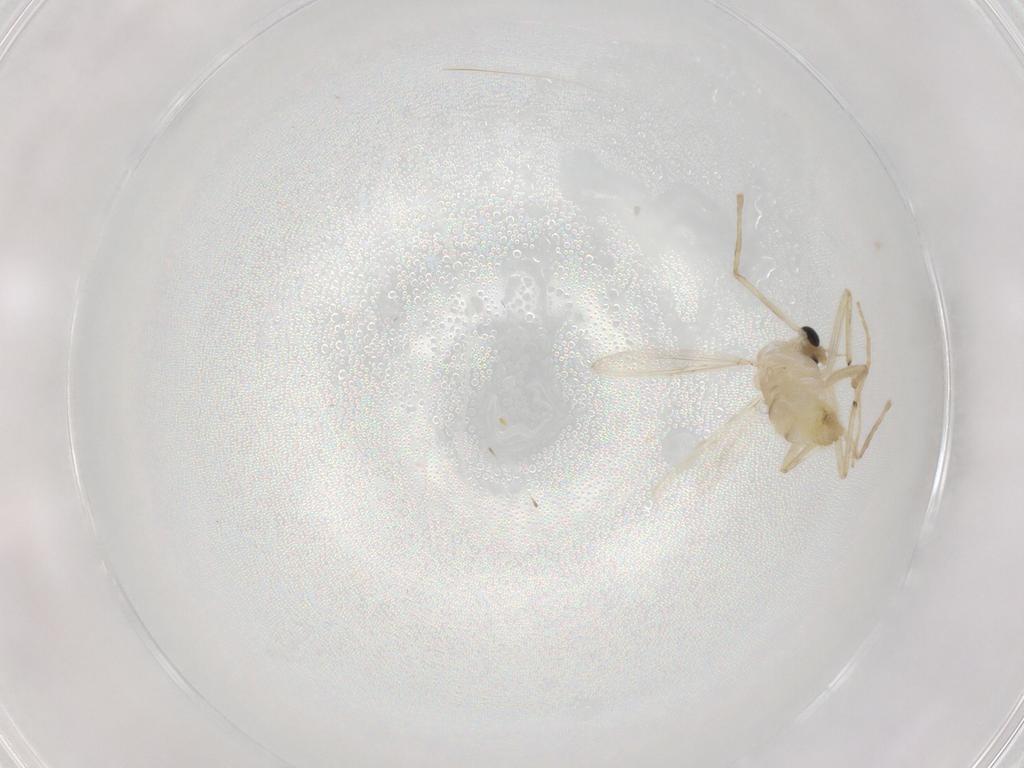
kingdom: Animalia
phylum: Arthropoda
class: Insecta
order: Diptera
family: Chironomidae
